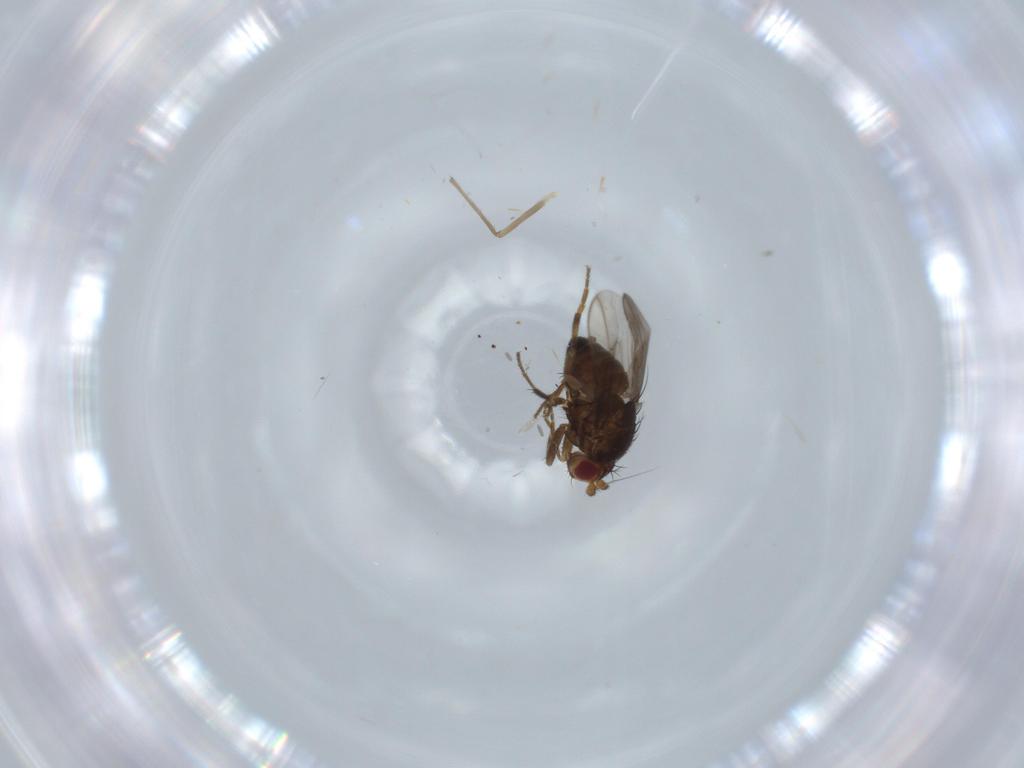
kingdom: Animalia
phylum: Arthropoda
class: Insecta
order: Diptera
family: Chironomidae
